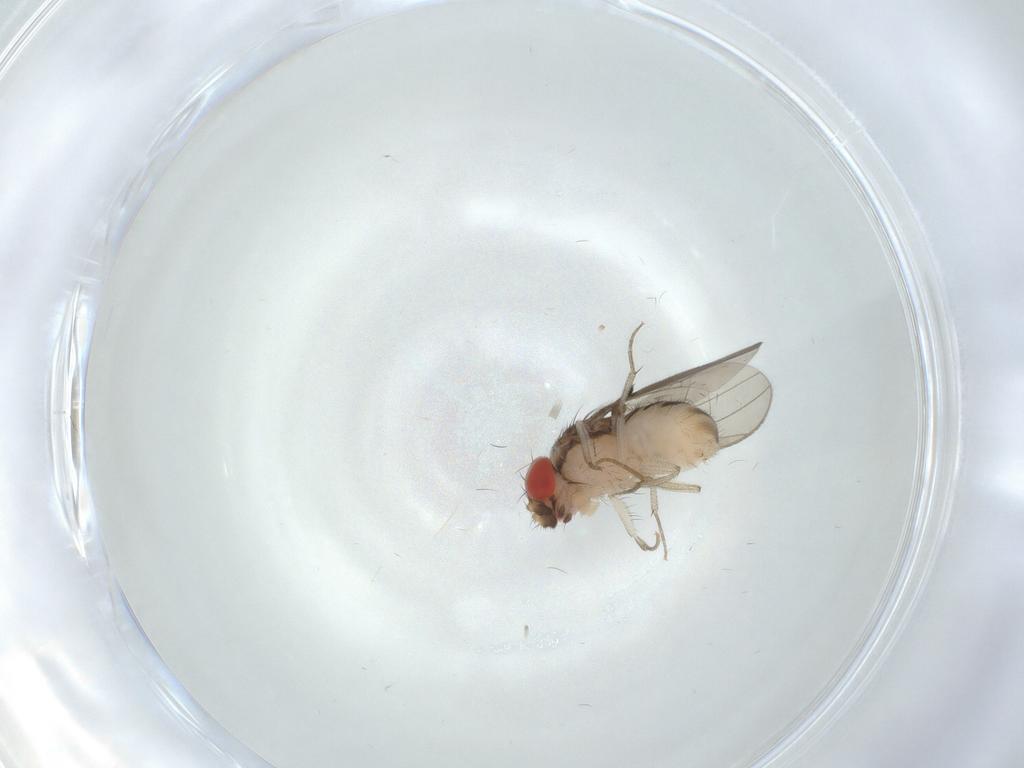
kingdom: Animalia
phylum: Arthropoda
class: Insecta
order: Diptera
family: Drosophilidae
